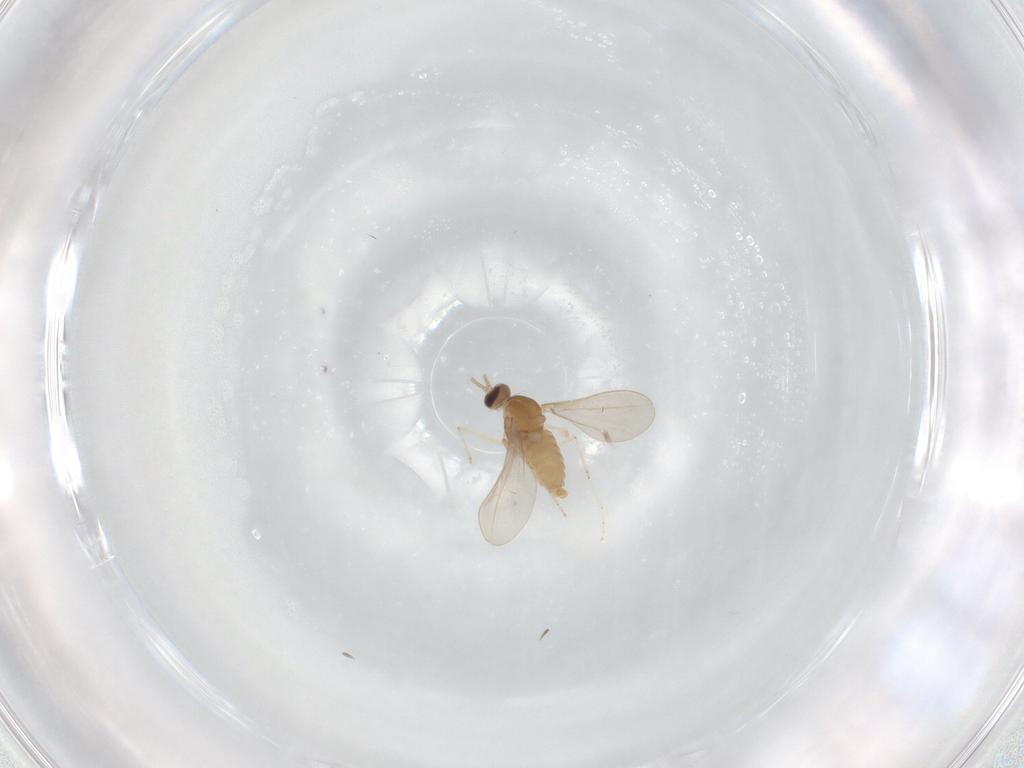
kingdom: Animalia
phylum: Arthropoda
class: Insecta
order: Diptera
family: Cecidomyiidae
